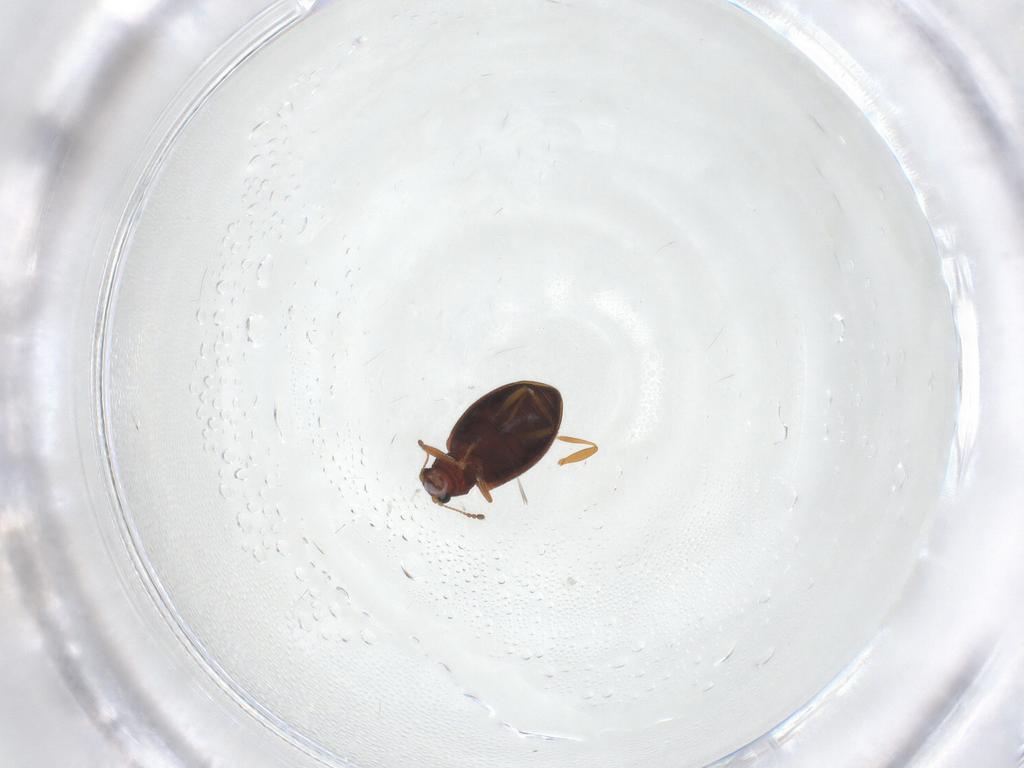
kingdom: Animalia
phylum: Arthropoda
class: Insecta
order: Coleoptera
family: Latridiidae
